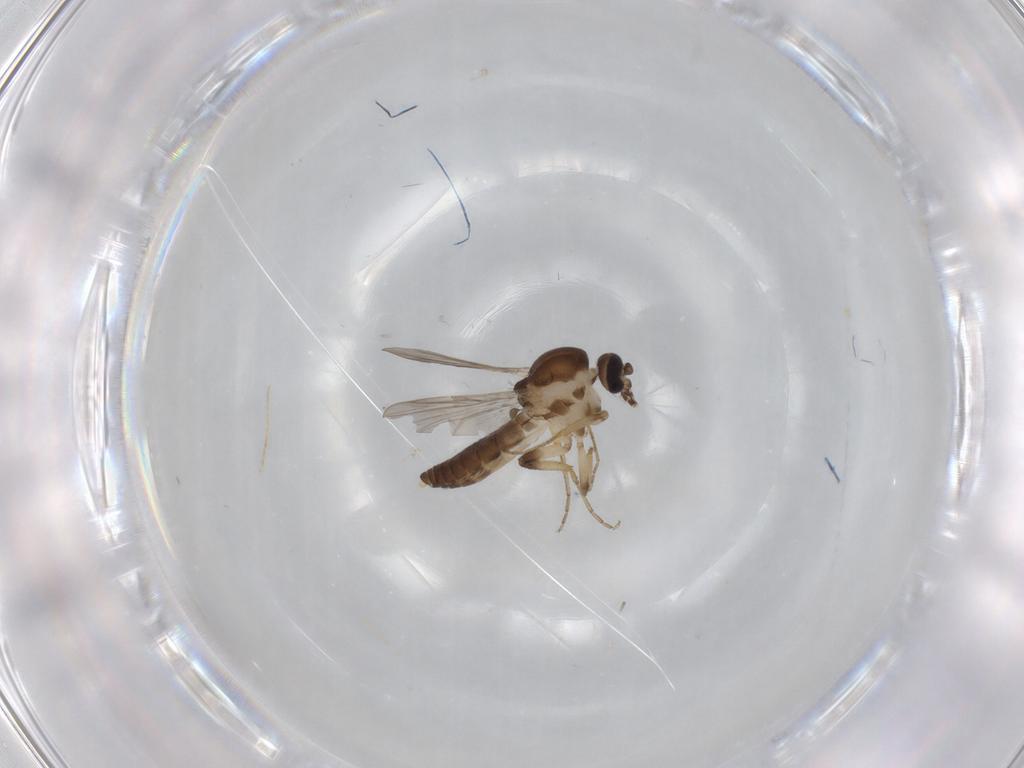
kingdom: Animalia
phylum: Arthropoda
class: Insecta
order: Diptera
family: Ceratopogonidae
